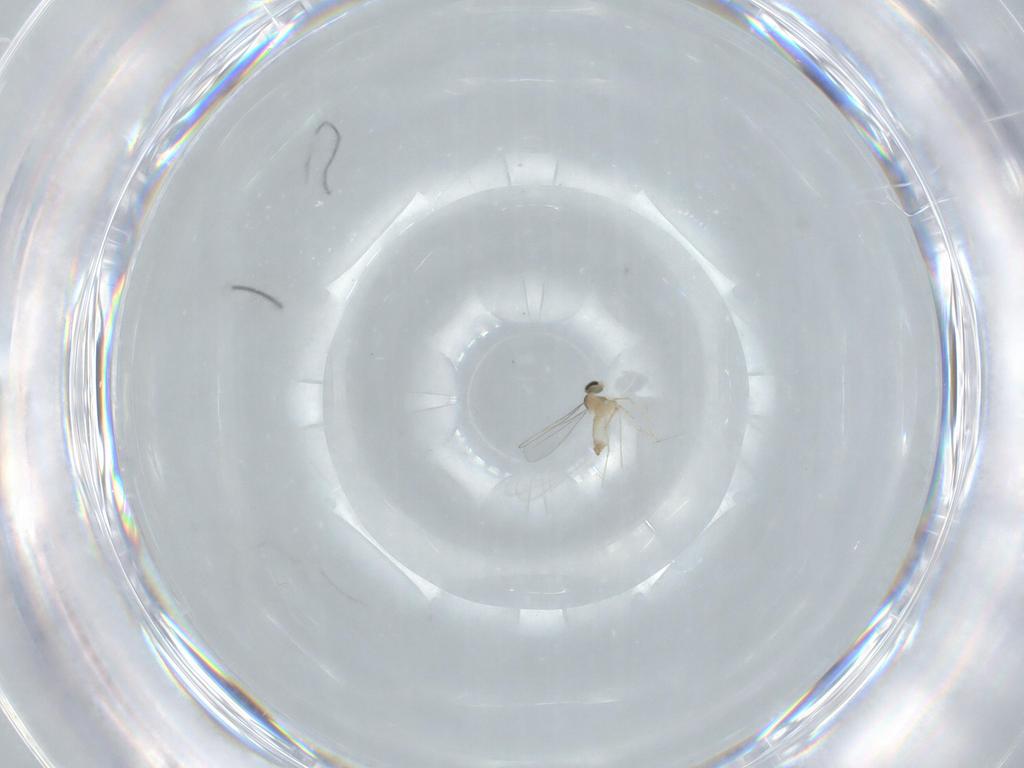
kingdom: Animalia
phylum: Arthropoda
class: Insecta
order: Diptera
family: Cecidomyiidae
